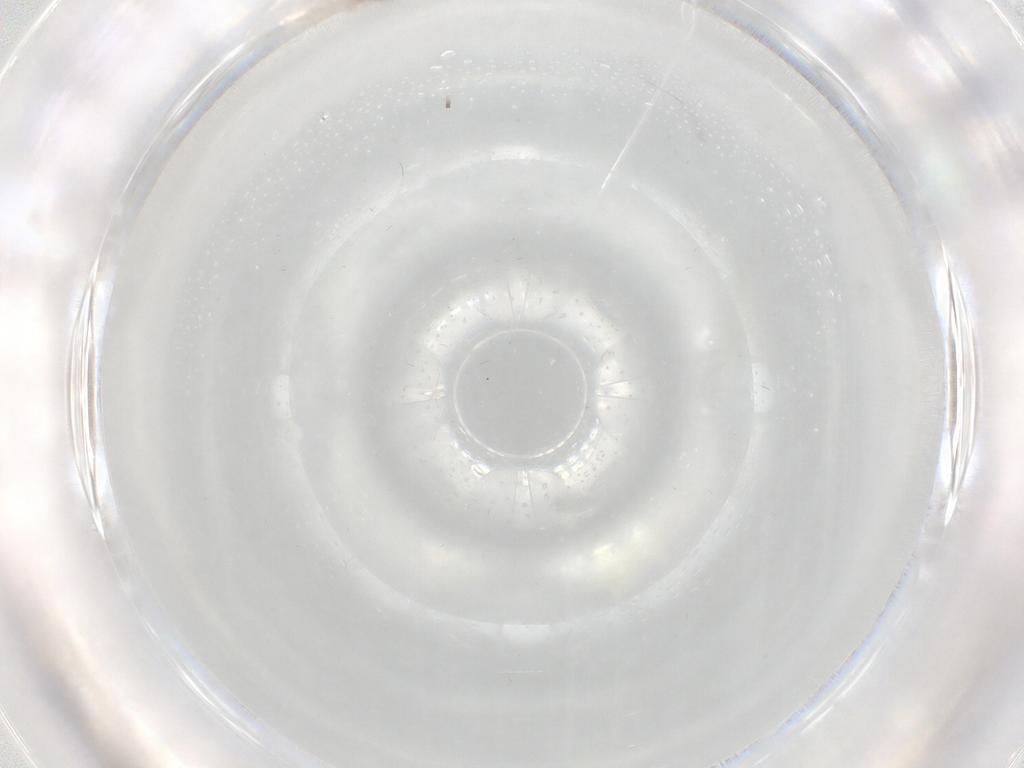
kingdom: Animalia
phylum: Arthropoda
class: Insecta
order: Diptera
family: Cecidomyiidae
